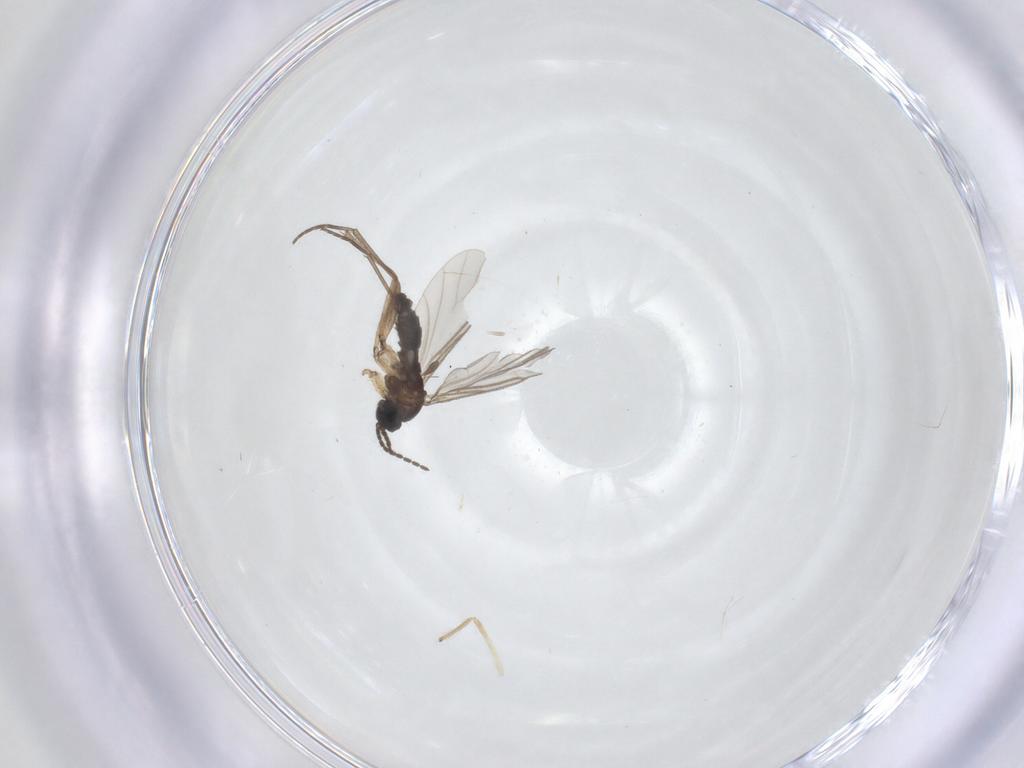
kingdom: Animalia
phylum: Arthropoda
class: Insecta
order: Diptera
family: Sciaridae
